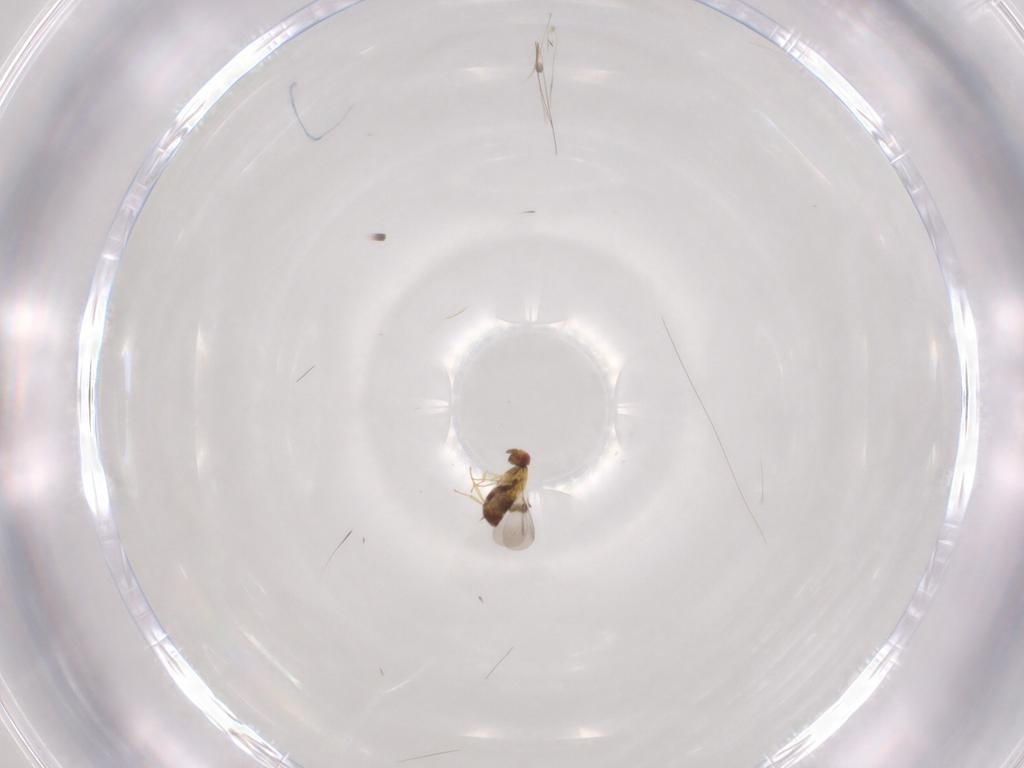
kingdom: Animalia
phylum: Arthropoda
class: Insecta
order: Hymenoptera
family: Trichogrammatidae
